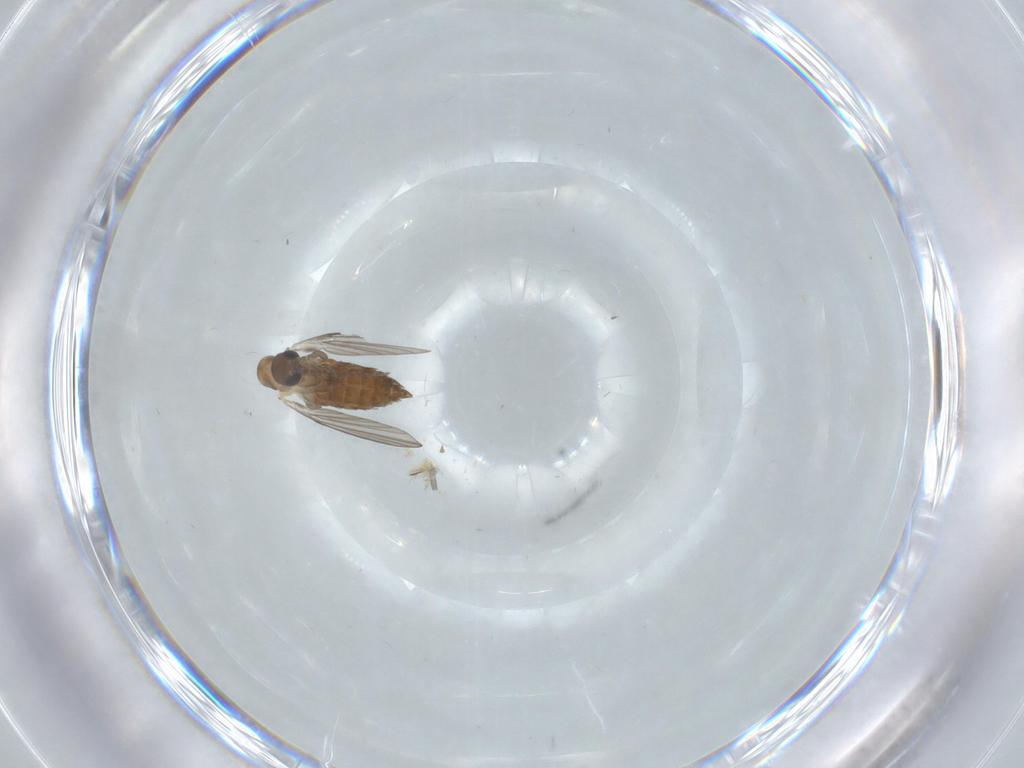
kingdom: Animalia
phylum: Arthropoda
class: Insecta
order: Diptera
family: Psychodidae
